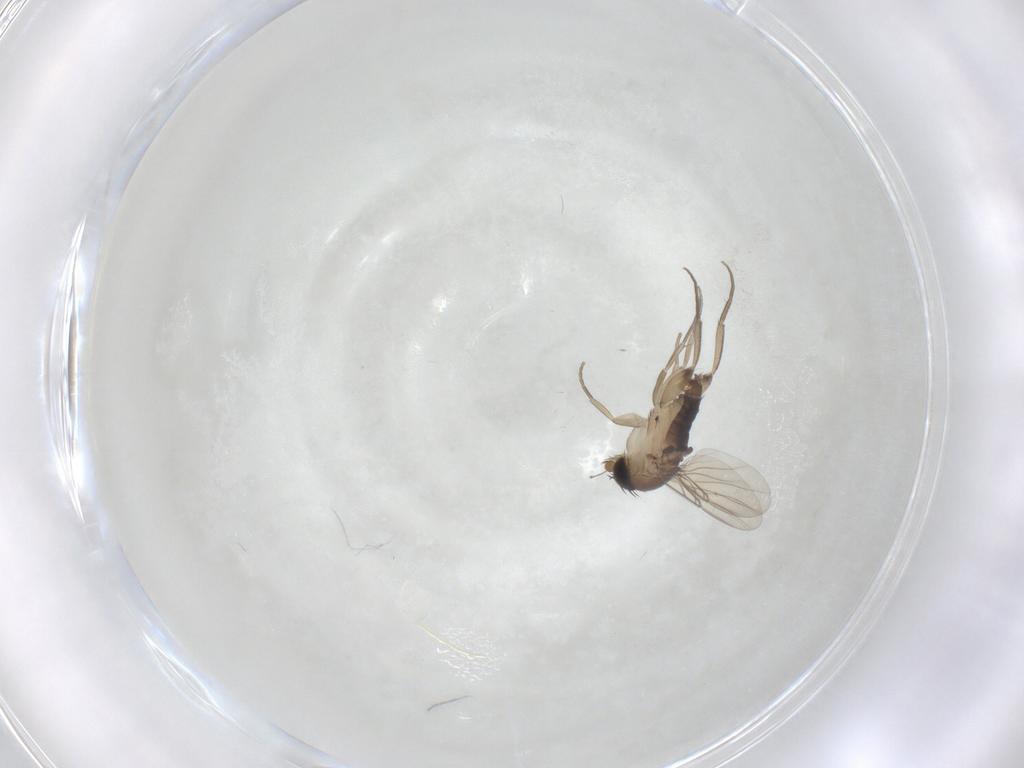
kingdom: Animalia
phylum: Arthropoda
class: Insecta
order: Diptera
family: Phoridae
